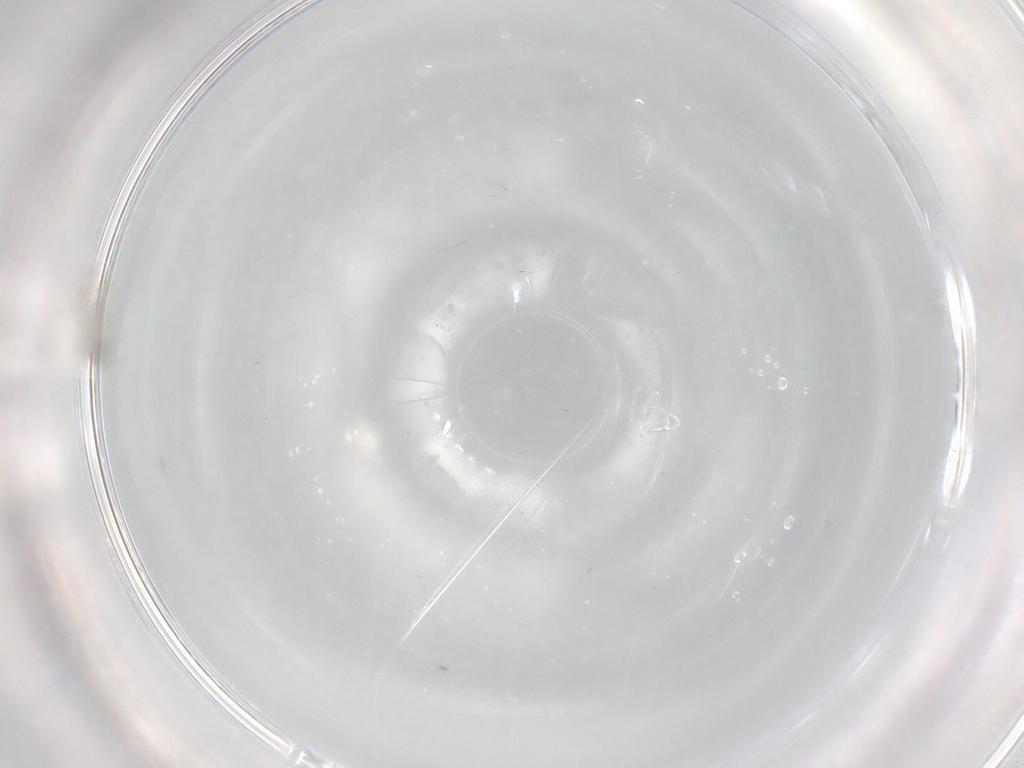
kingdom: Animalia
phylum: Arthropoda
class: Insecta
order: Diptera
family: Cecidomyiidae
